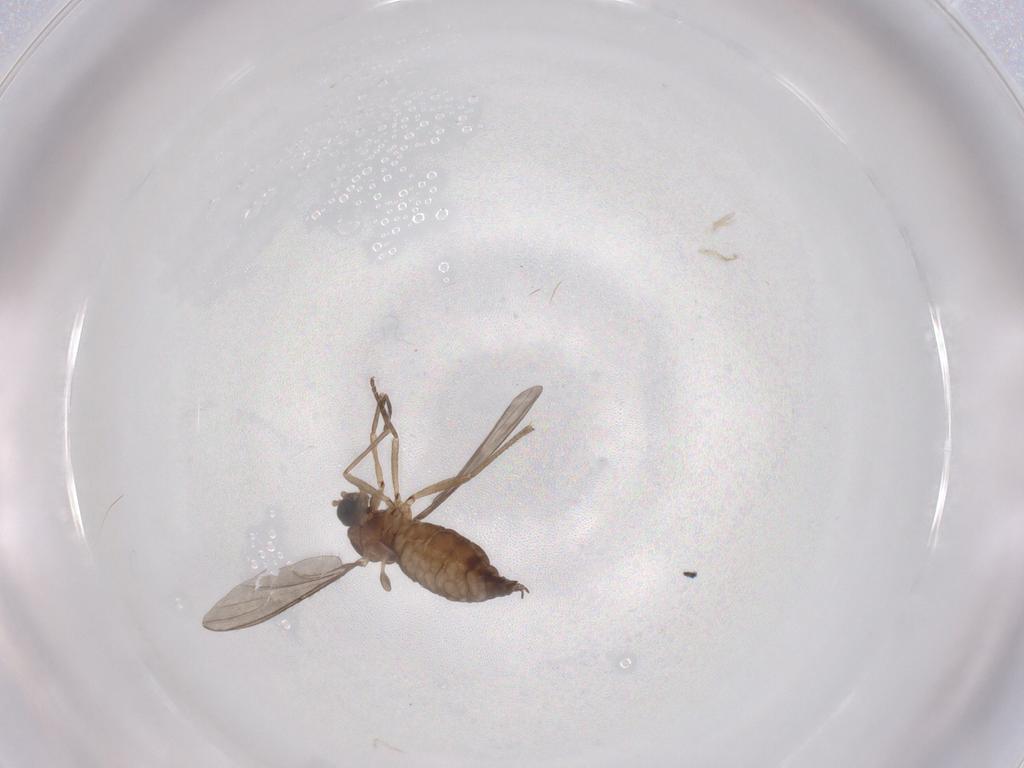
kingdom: Animalia
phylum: Arthropoda
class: Insecta
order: Diptera
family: Sciaridae
